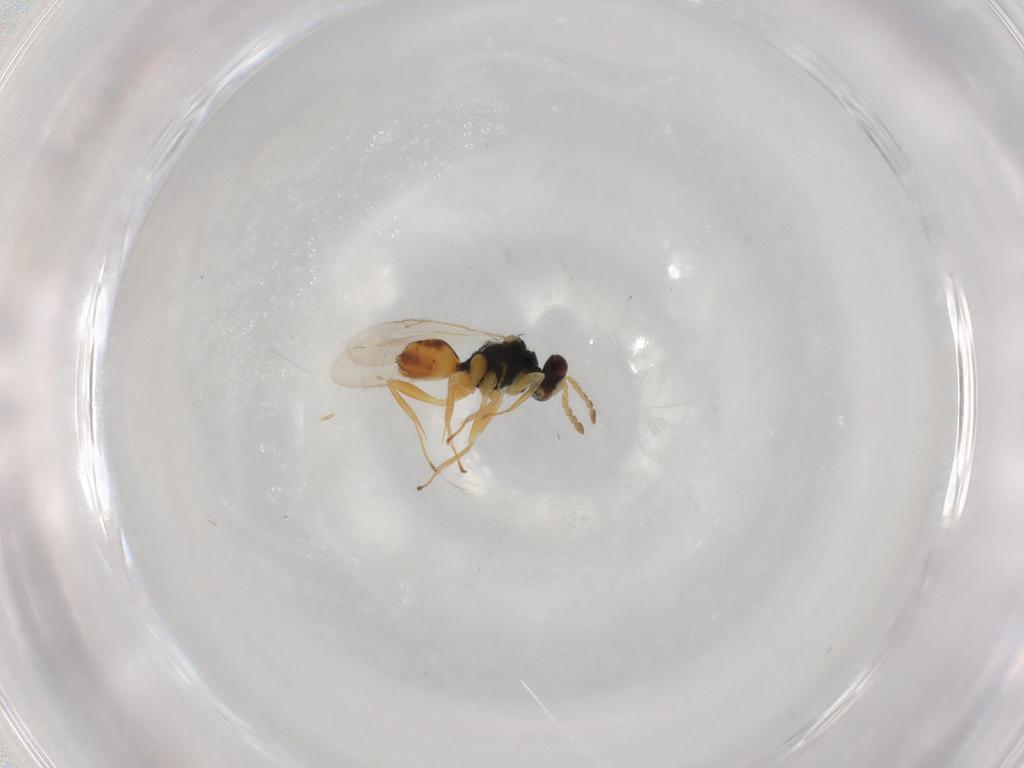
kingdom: Animalia
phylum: Arthropoda
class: Insecta
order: Hymenoptera
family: Eulophidae
